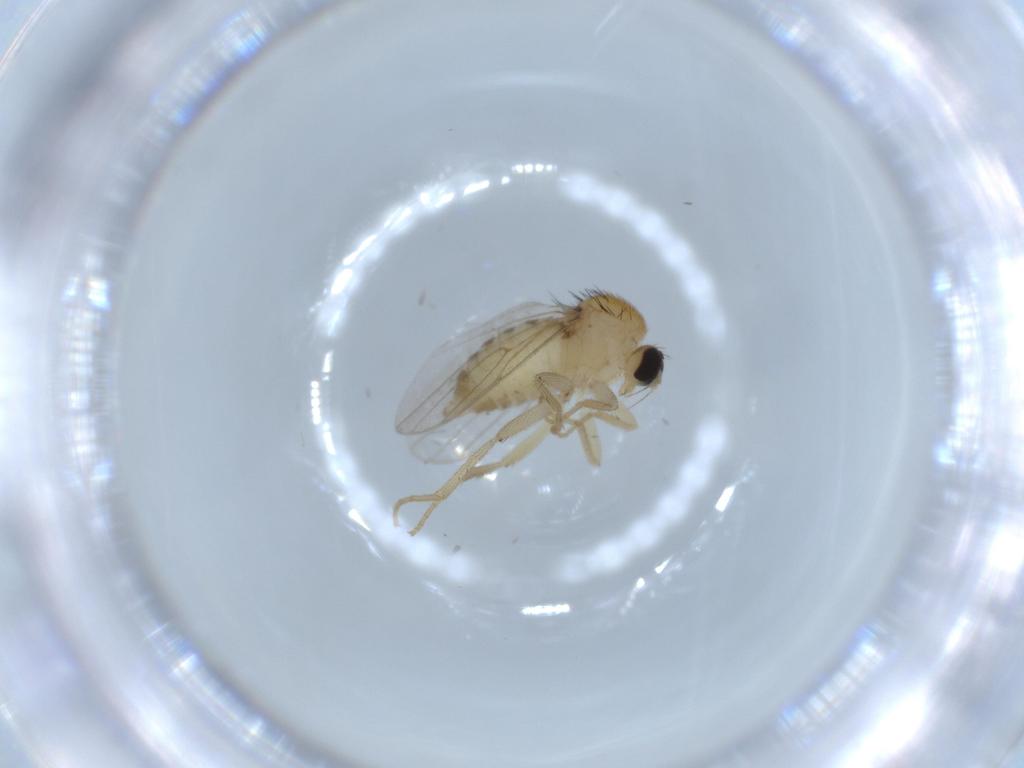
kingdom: Animalia
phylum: Arthropoda
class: Insecta
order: Diptera
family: Hybotidae
